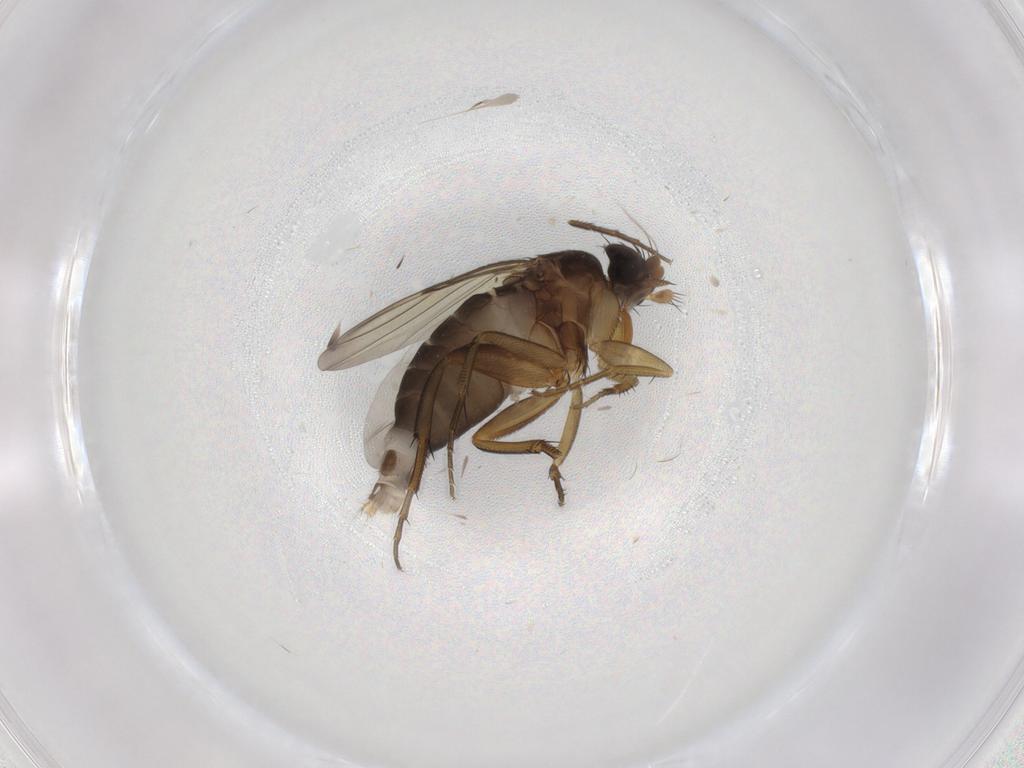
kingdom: Animalia
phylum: Arthropoda
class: Insecta
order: Diptera
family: Phoridae
